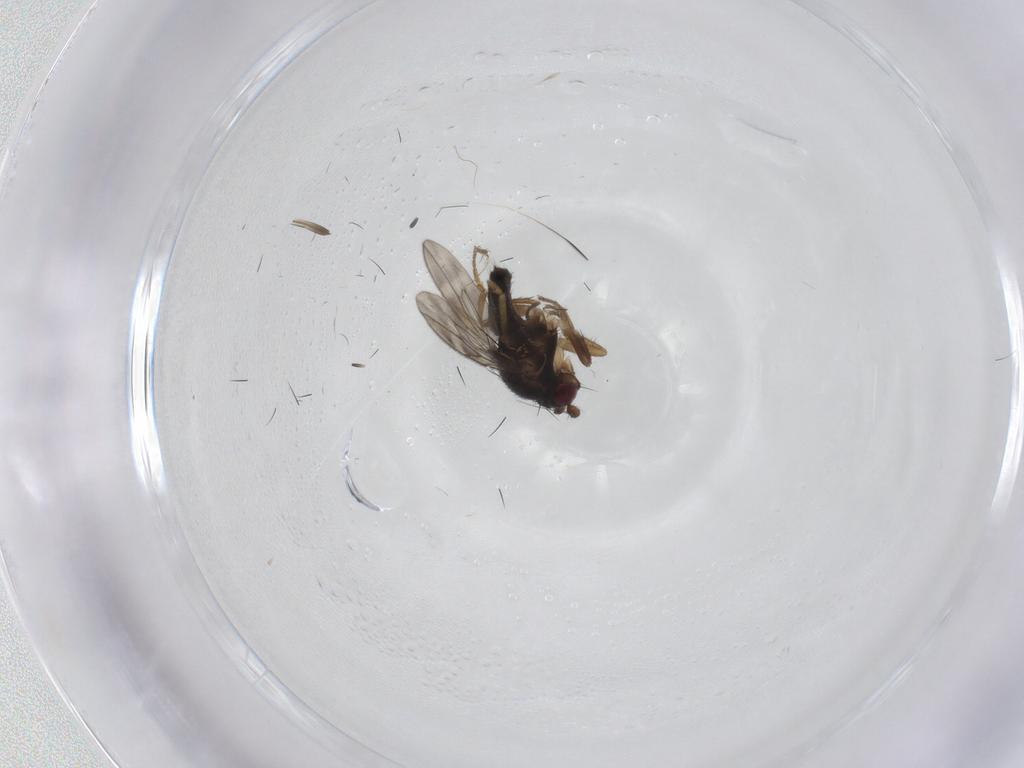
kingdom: Animalia
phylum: Arthropoda
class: Insecta
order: Diptera
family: Sphaeroceridae
